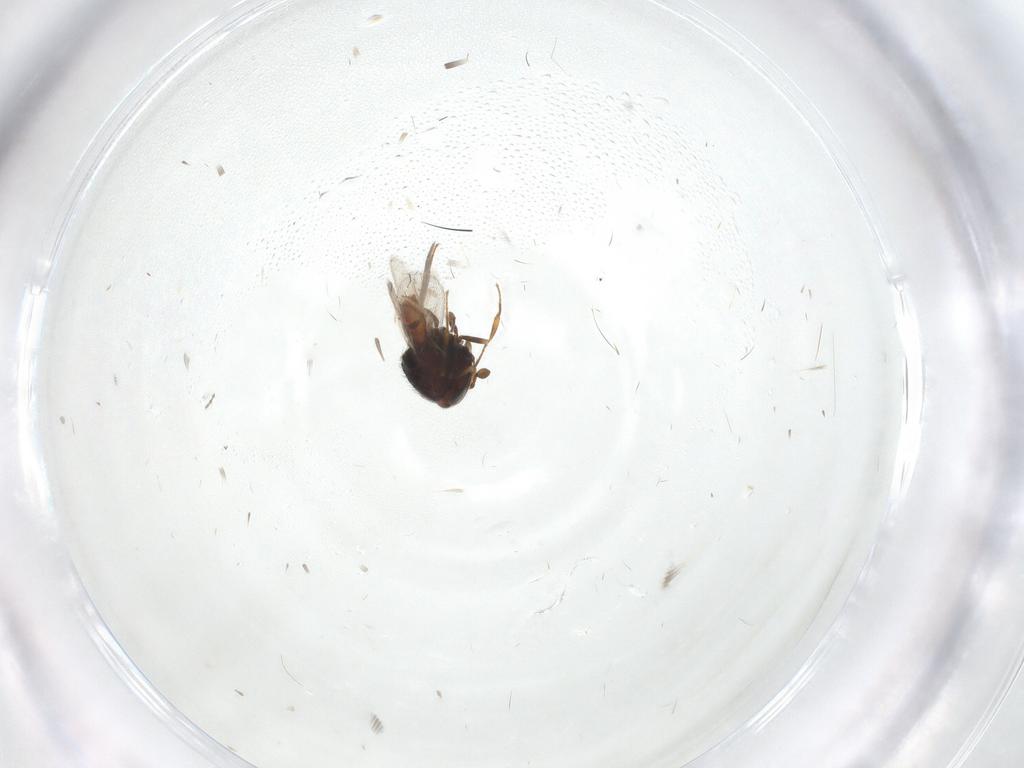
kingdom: Animalia
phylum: Arthropoda
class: Insecta
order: Hymenoptera
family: Scelionidae
